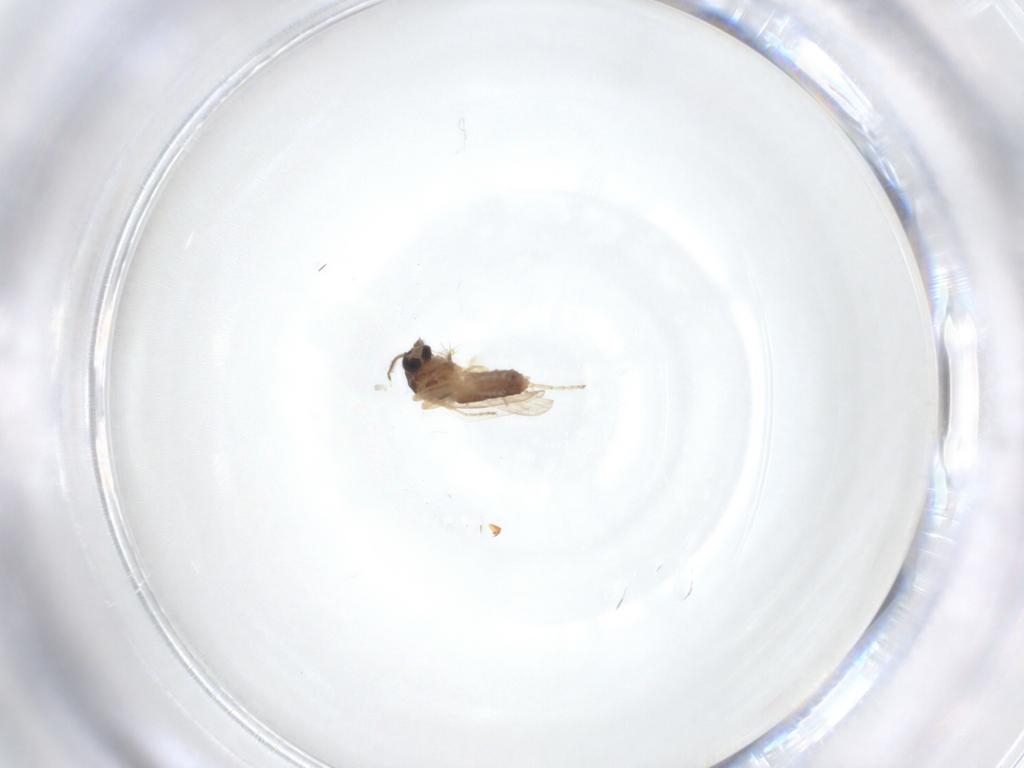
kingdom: Animalia
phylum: Arthropoda
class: Insecta
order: Diptera
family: Ceratopogonidae
